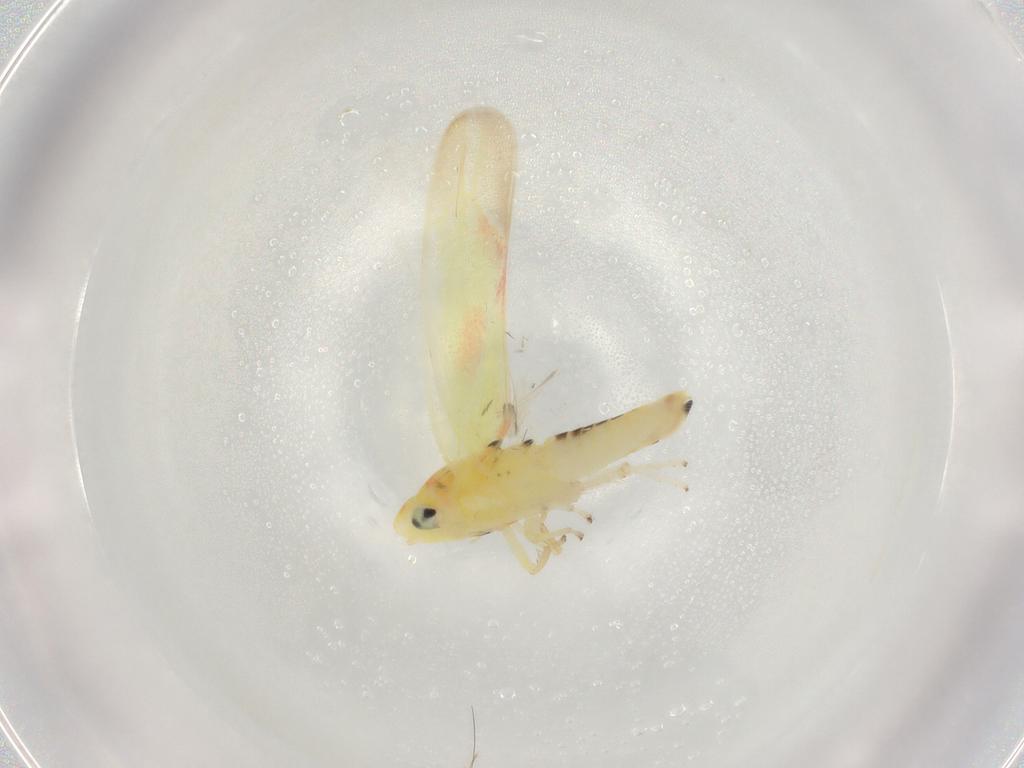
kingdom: Animalia
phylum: Arthropoda
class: Insecta
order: Hemiptera
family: Cicadellidae
